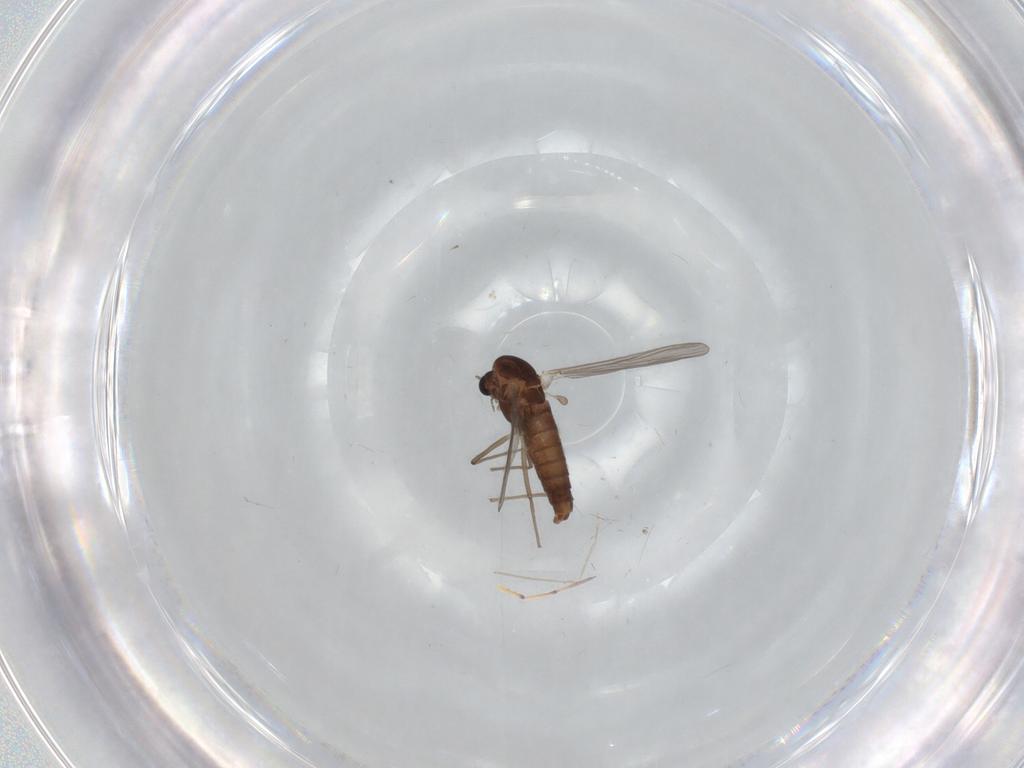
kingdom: Animalia
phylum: Arthropoda
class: Insecta
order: Diptera
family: Chironomidae
